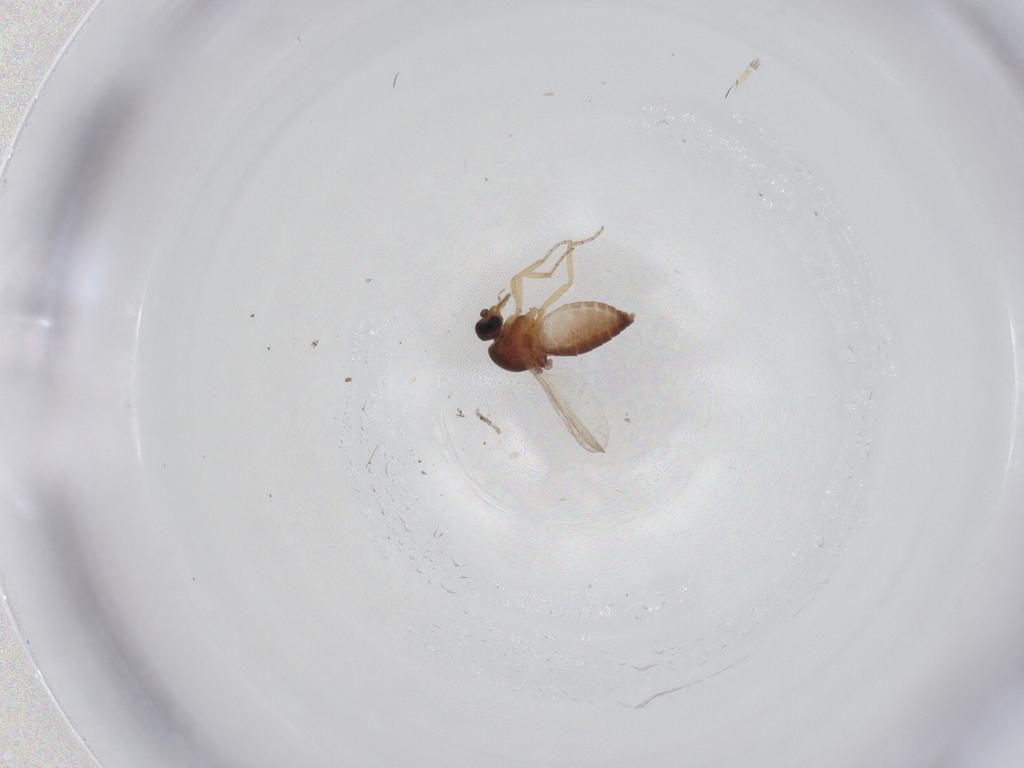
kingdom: Animalia
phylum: Arthropoda
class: Insecta
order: Diptera
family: Ceratopogonidae
